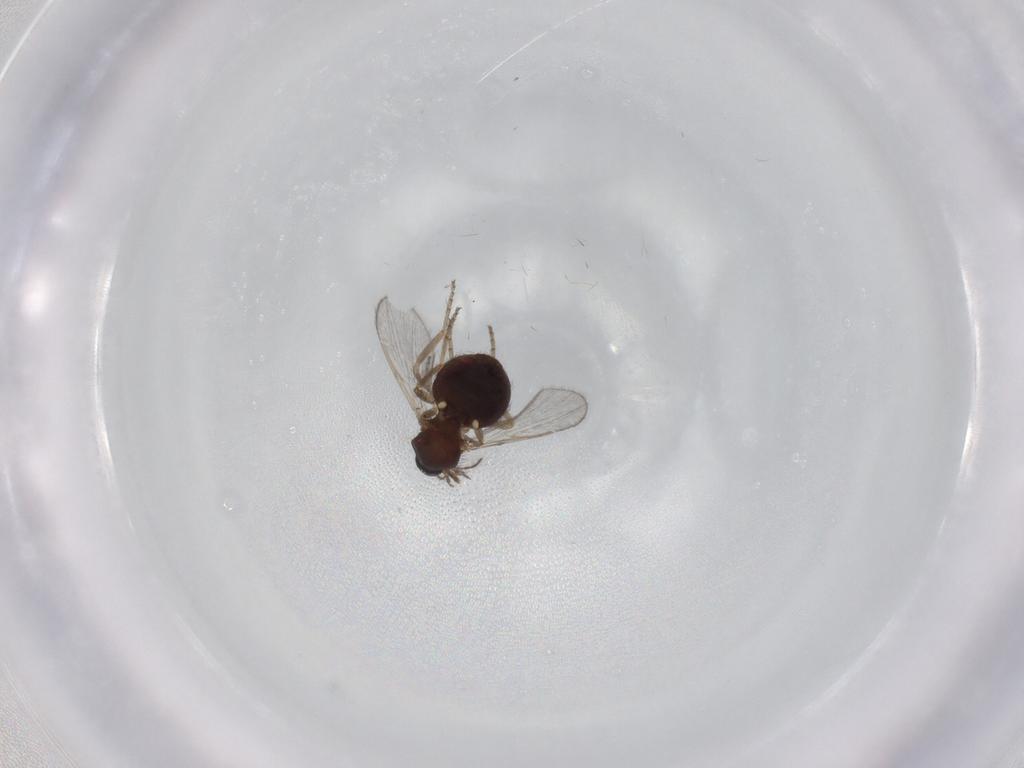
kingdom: Animalia
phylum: Arthropoda
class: Insecta
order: Diptera
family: Ceratopogonidae
